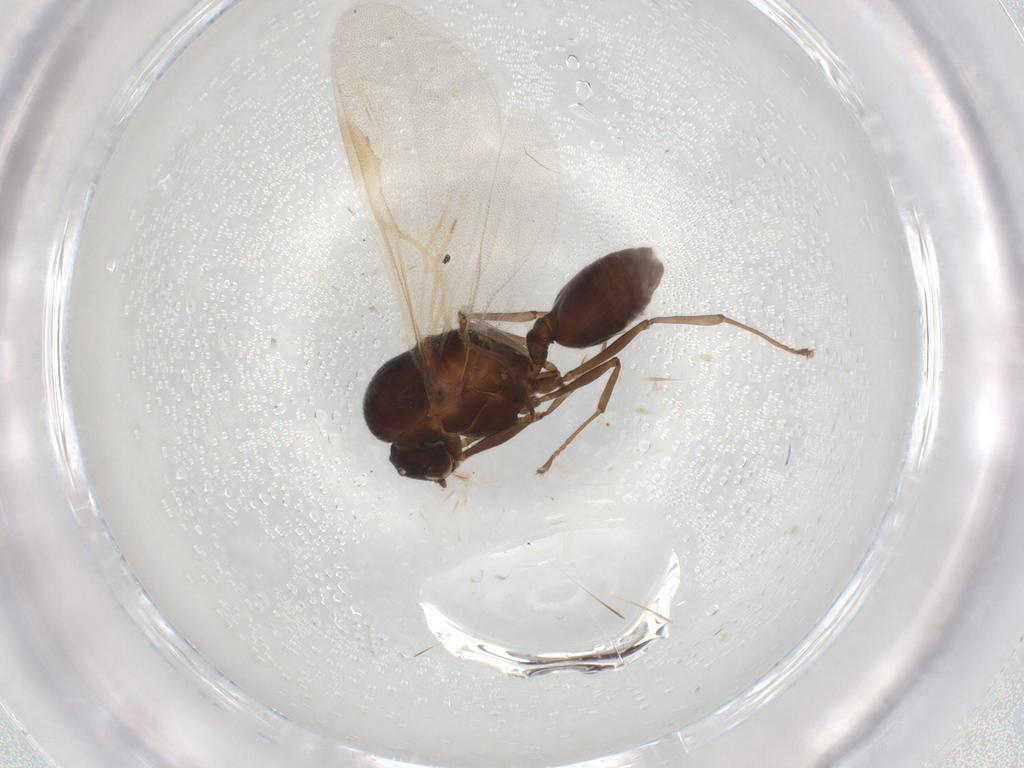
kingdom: Animalia
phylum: Arthropoda
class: Insecta
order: Hymenoptera
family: Formicidae
